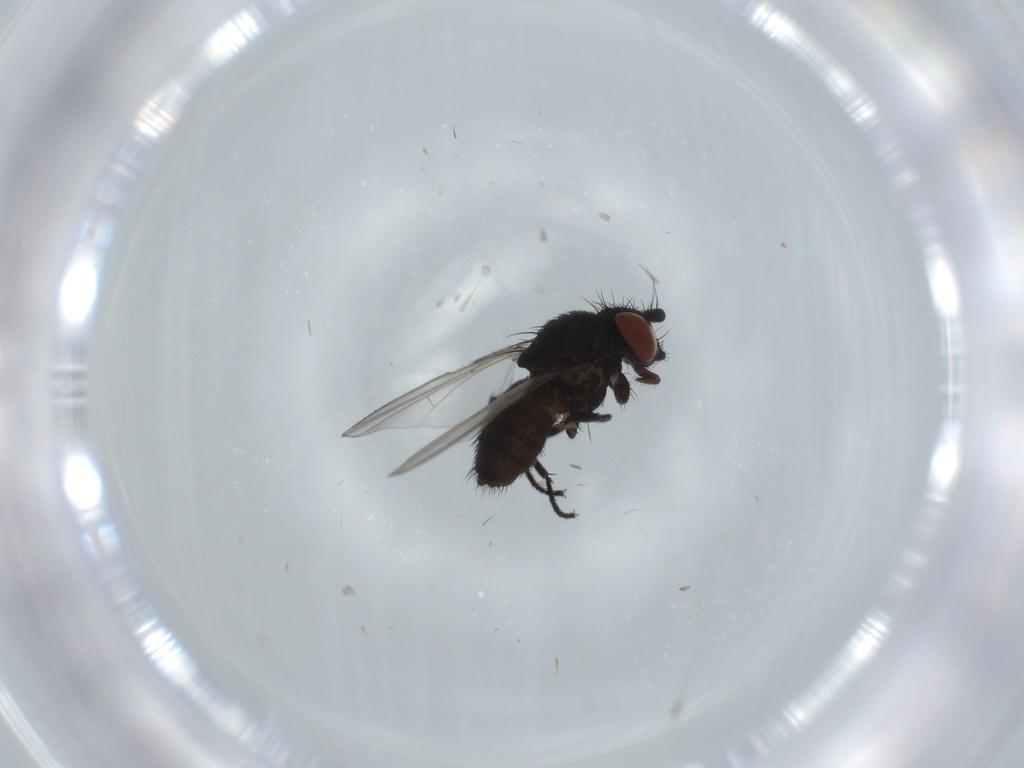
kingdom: Animalia
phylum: Arthropoda
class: Insecta
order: Diptera
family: Milichiidae
